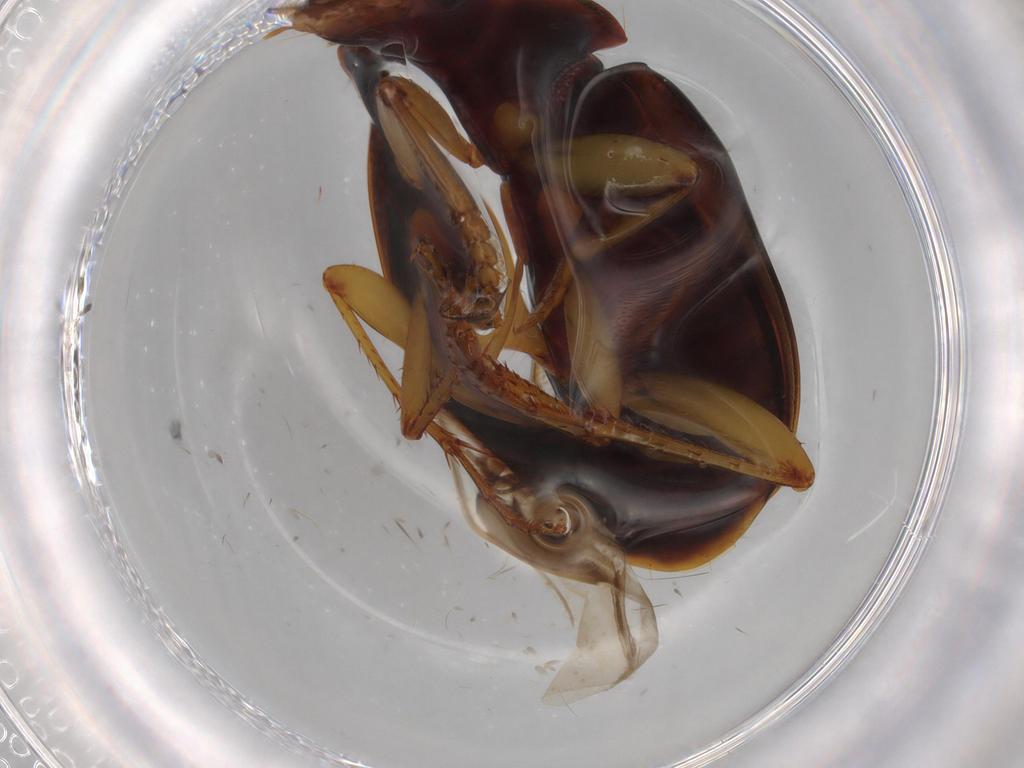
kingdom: Animalia
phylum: Arthropoda
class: Insecta
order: Coleoptera
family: Carabidae
